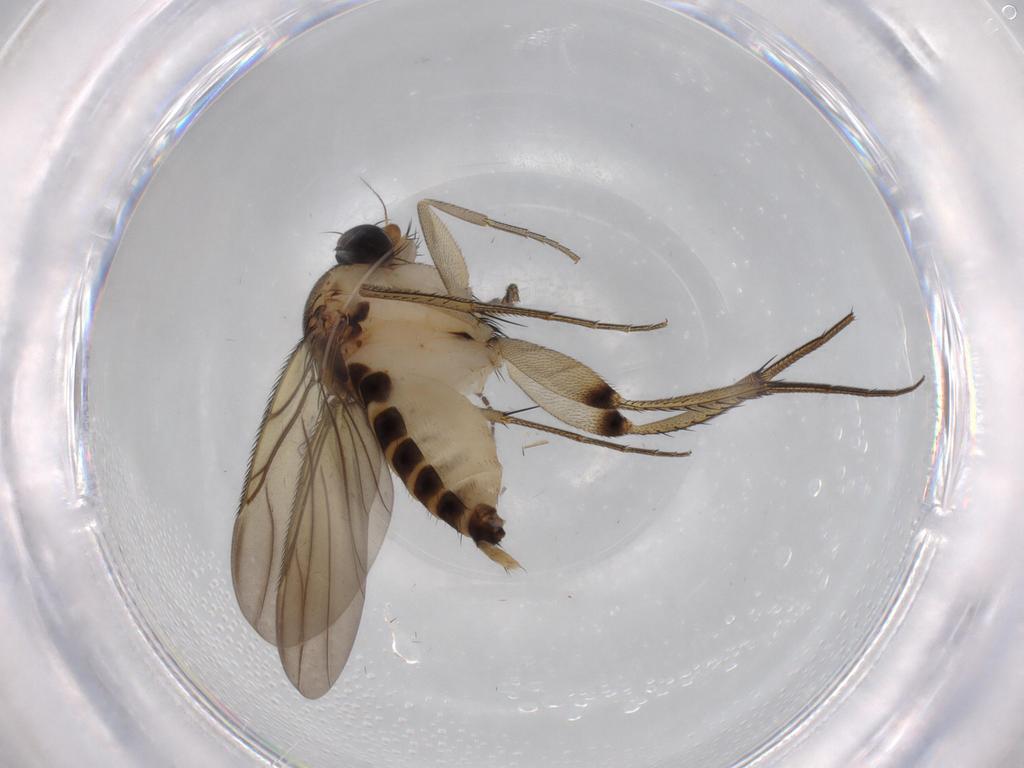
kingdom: Animalia
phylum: Arthropoda
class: Insecta
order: Diptera
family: Sciaridae
